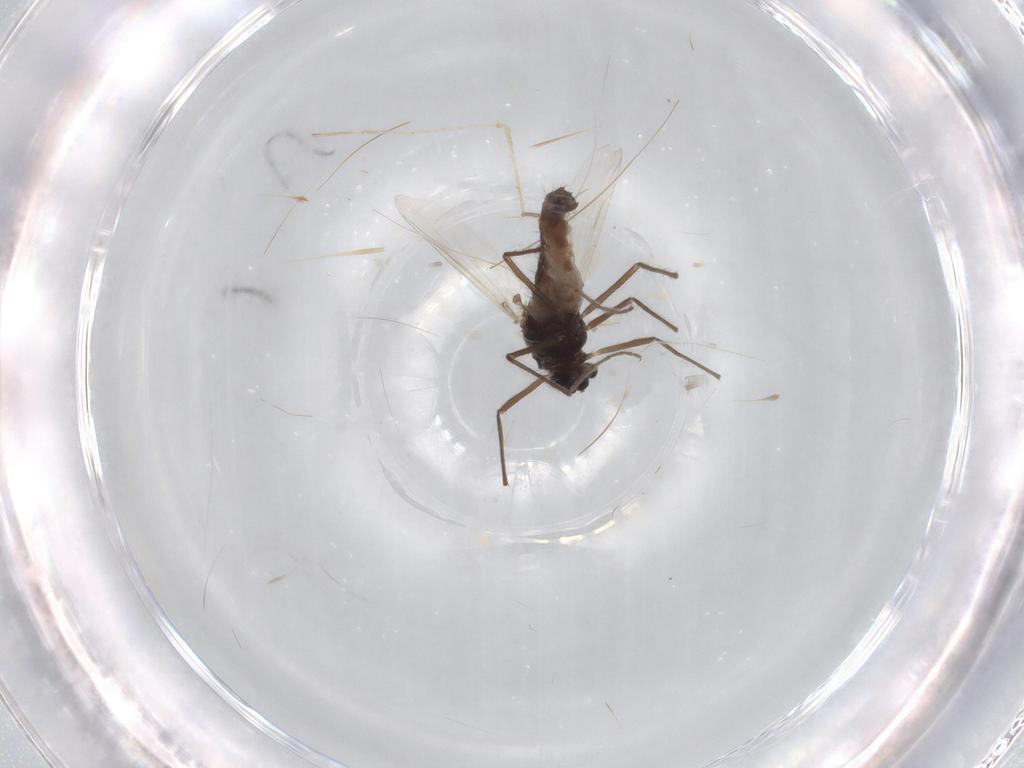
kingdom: Animalia
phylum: Arthropoda
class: Insecta
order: Diptera
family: Chironomidae
